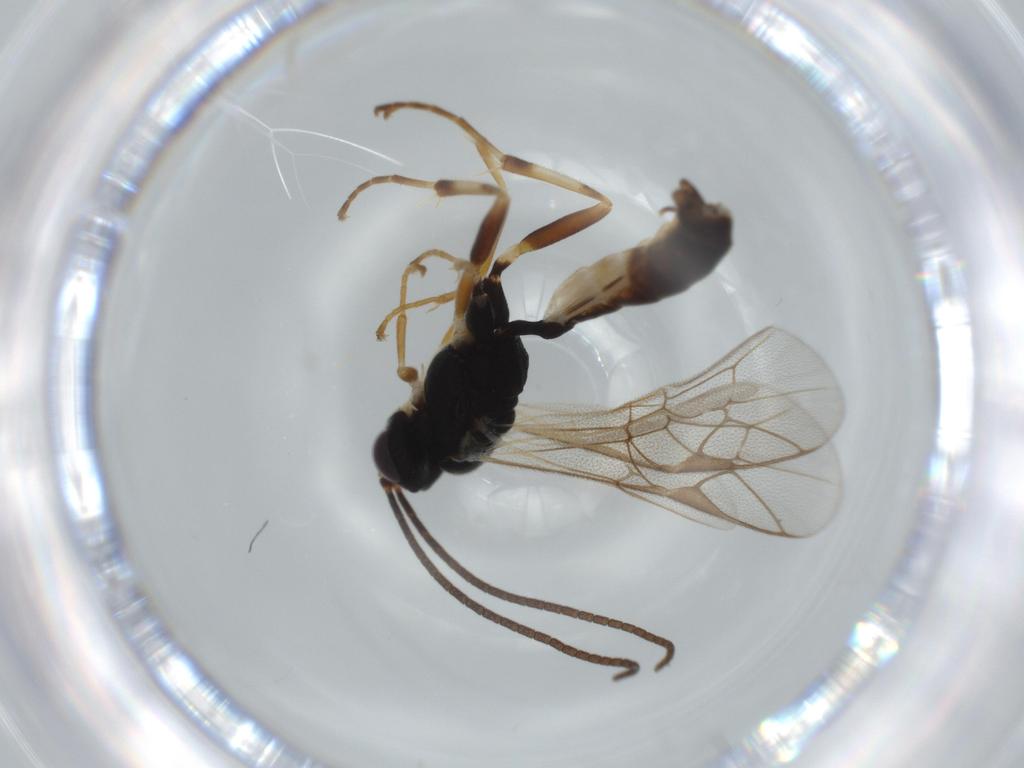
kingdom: Animalia
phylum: Arthropoda
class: Insecta
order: Hymenoptera
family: Ichneumonidae
